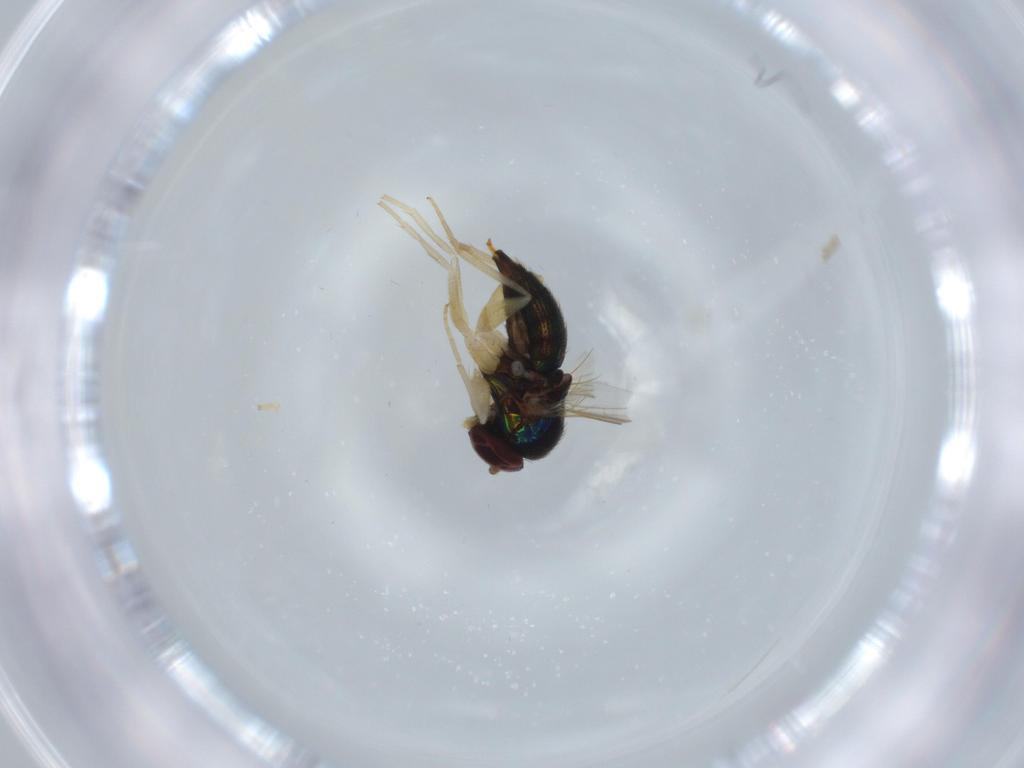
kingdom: Animalia
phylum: Arthropoda
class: Insecta
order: Diptera
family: Dolichopodidae
